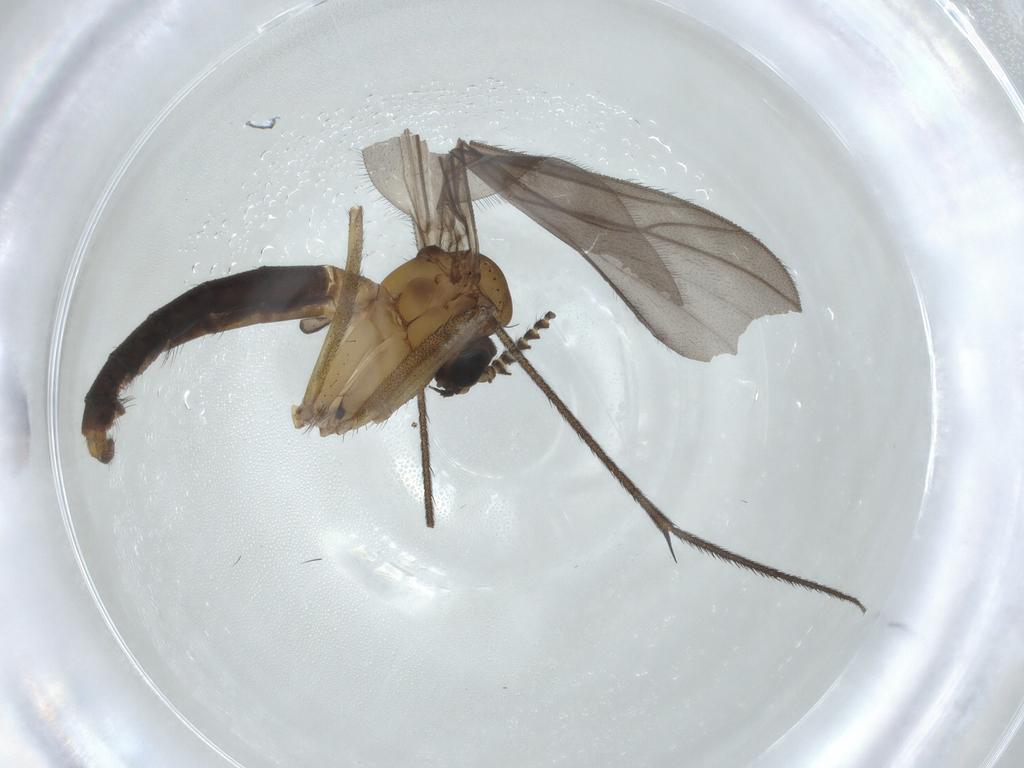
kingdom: Animalia
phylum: Arthropoda
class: Insecta
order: Diptera
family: Ditomyiidae
